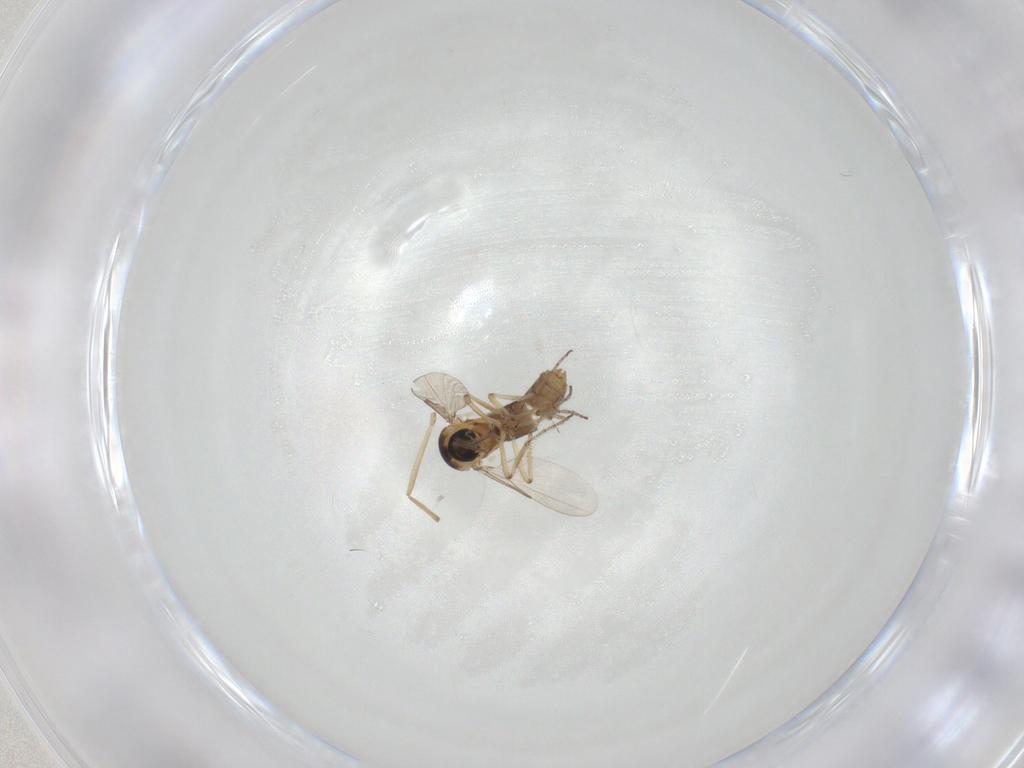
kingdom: Animalia
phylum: Arthropoda
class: Insecta
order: Diptera
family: Ceratopogonidae
